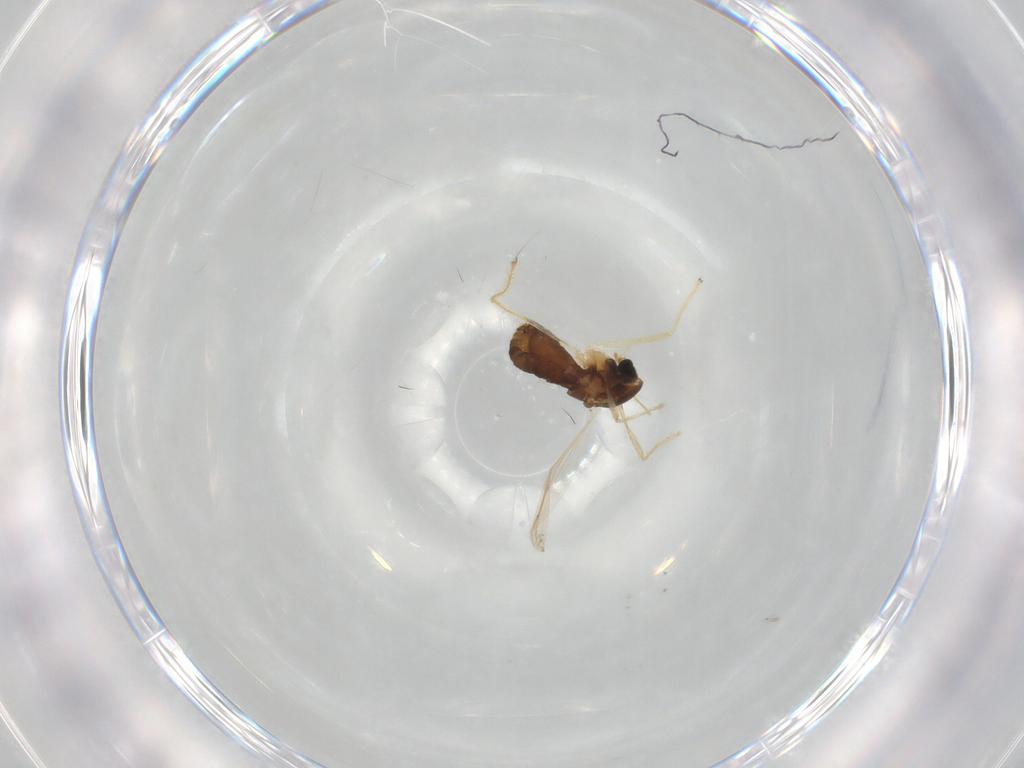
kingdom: Animalia
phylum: Arthropoda
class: Insecta
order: Diptera
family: Chironomidae
